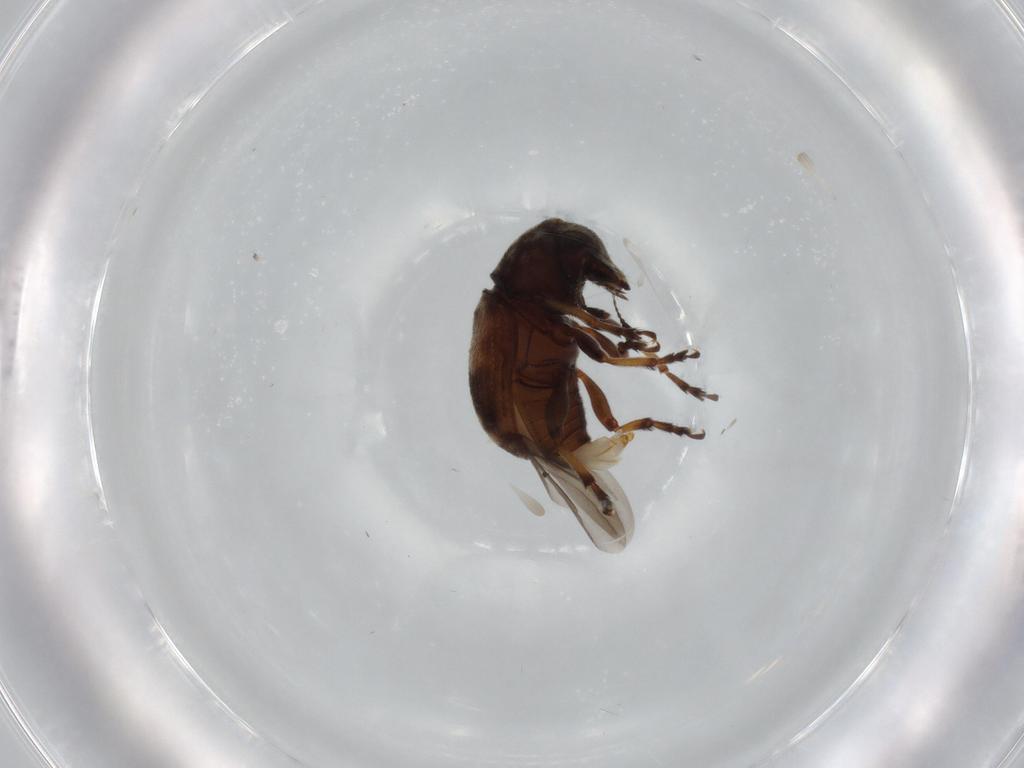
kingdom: Animalia
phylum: Arthropoda
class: Insecta
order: Coleoptera
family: Anthribidae
